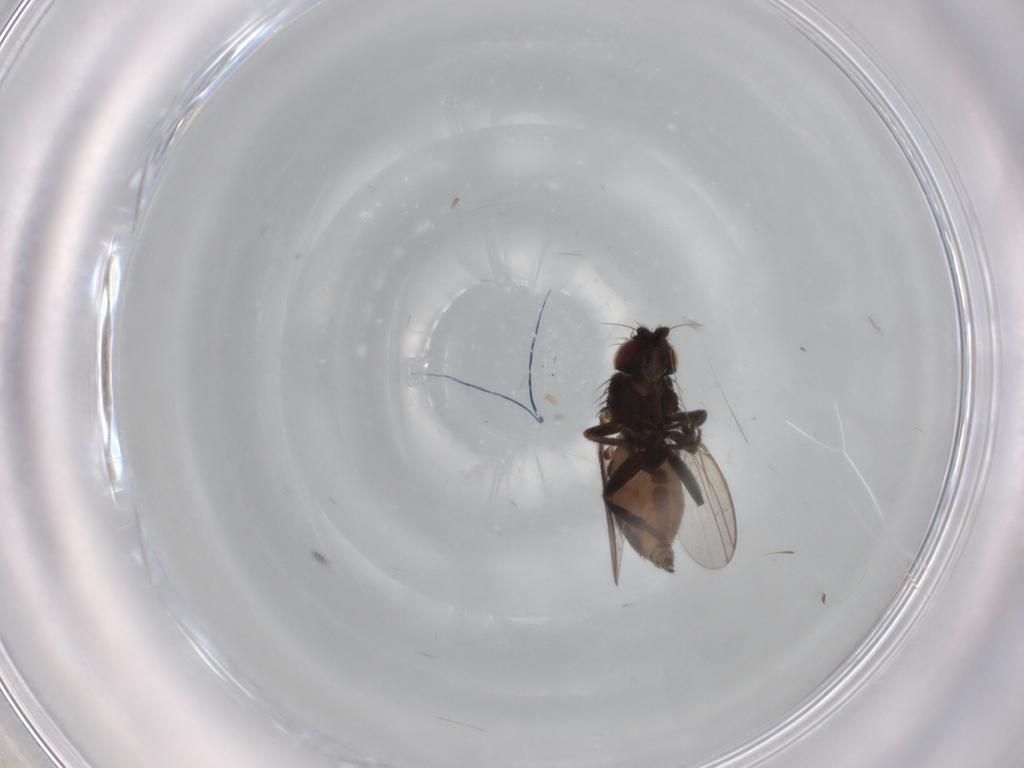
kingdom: Animalia
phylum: Arthropoda
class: Insecta
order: Diptera
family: Milichiidae
